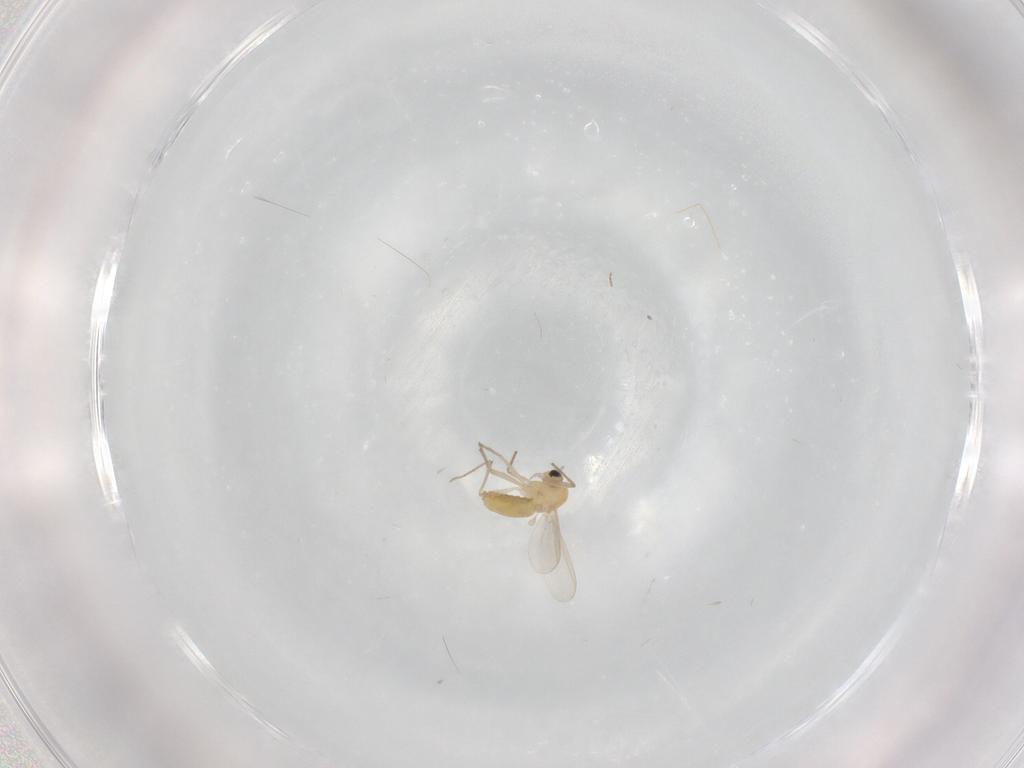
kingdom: Animalia
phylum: Arthropoda
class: Insecta
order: Diptera
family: Chironomidae
